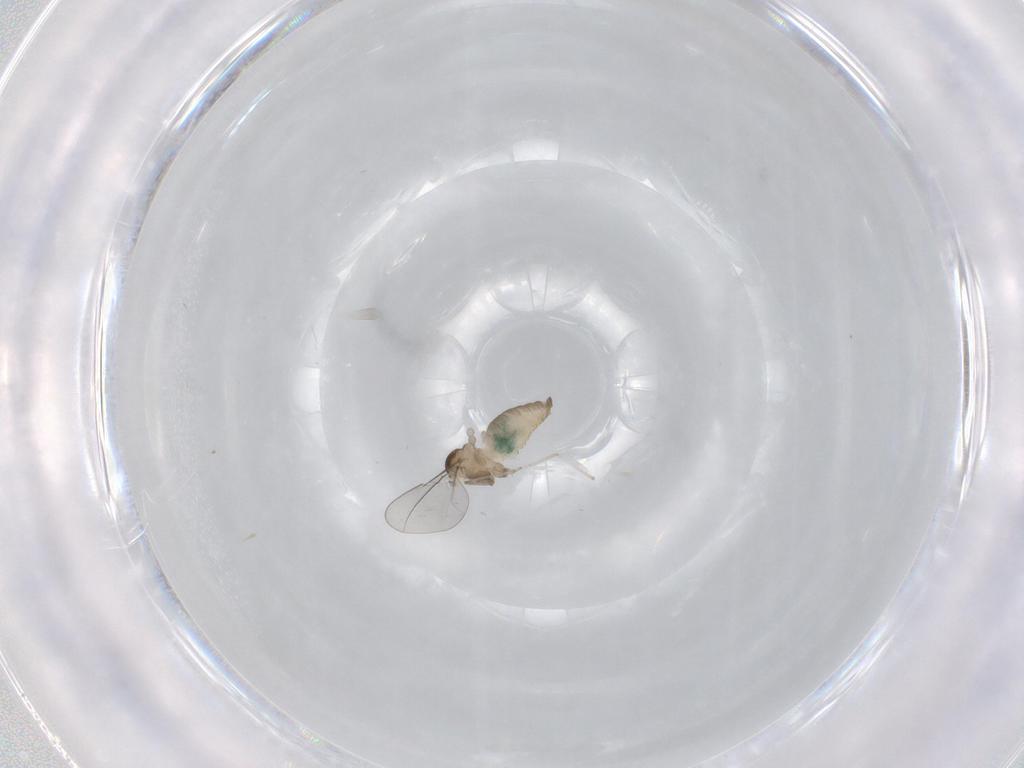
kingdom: Animalia
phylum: Arthropoda
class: Insecta
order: Diptera
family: Cecidomyiidae
